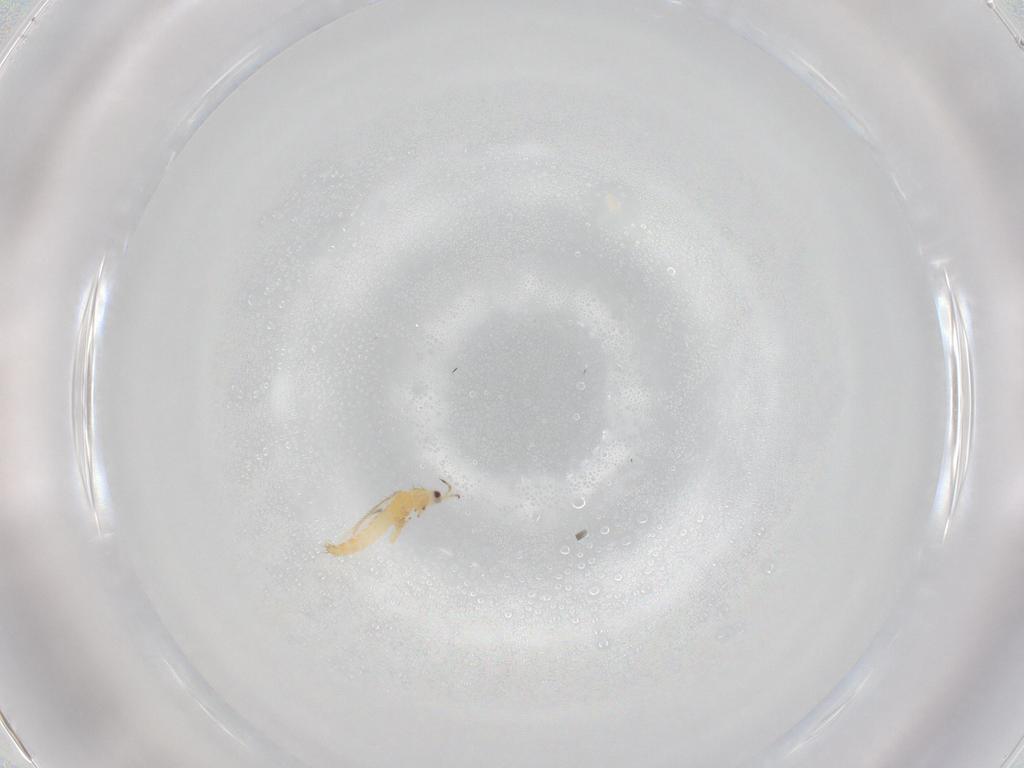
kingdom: Animalia
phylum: Arthropoda
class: Insecta
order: Thysanoptera
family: Thripidae
